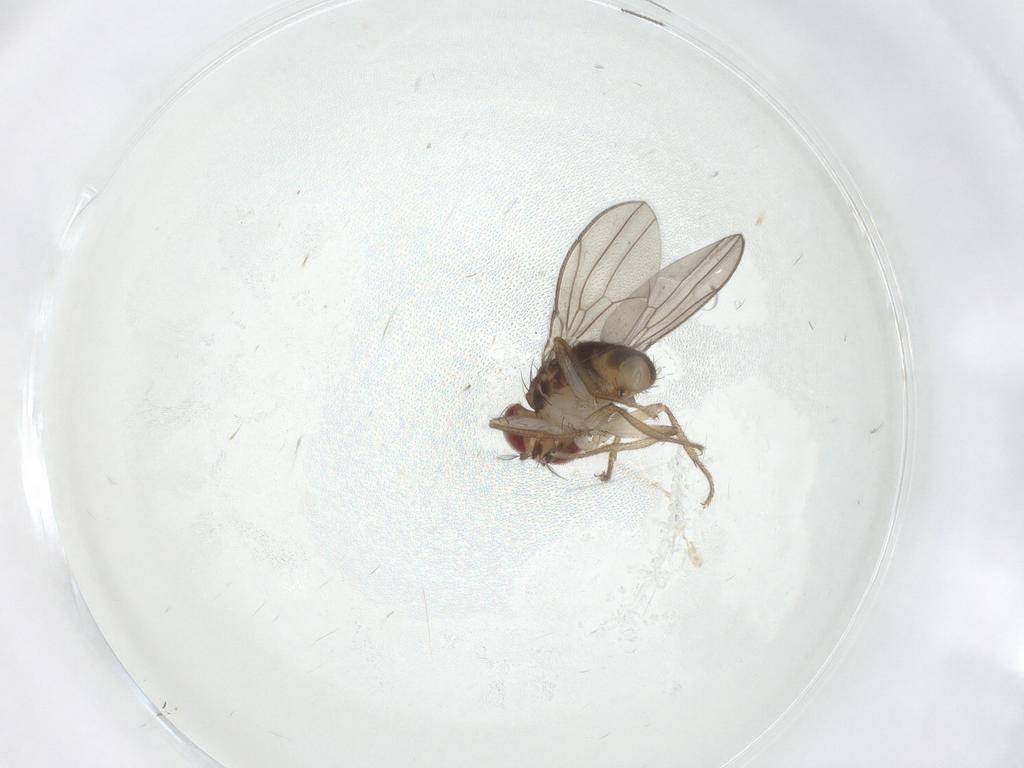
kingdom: Animalia
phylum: Arthropoda
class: Insecta
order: Diptera
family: Drosophilidae
